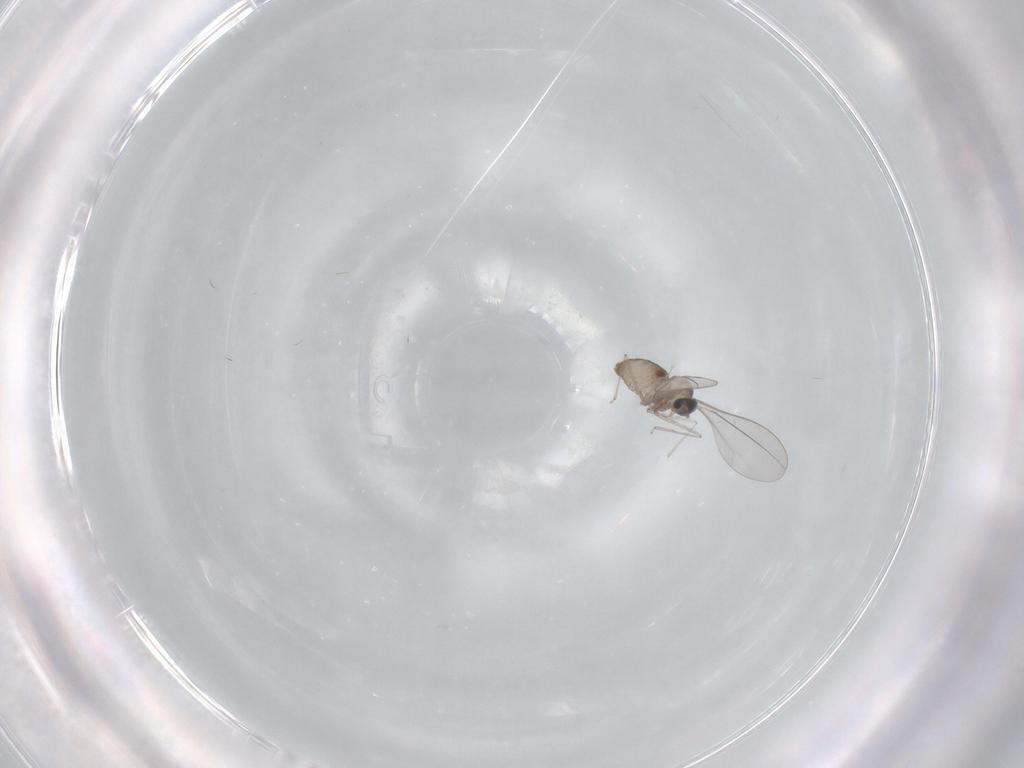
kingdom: Animalia
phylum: Arthropoda
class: Insecta
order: Diptera
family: Cecidomyiidae
